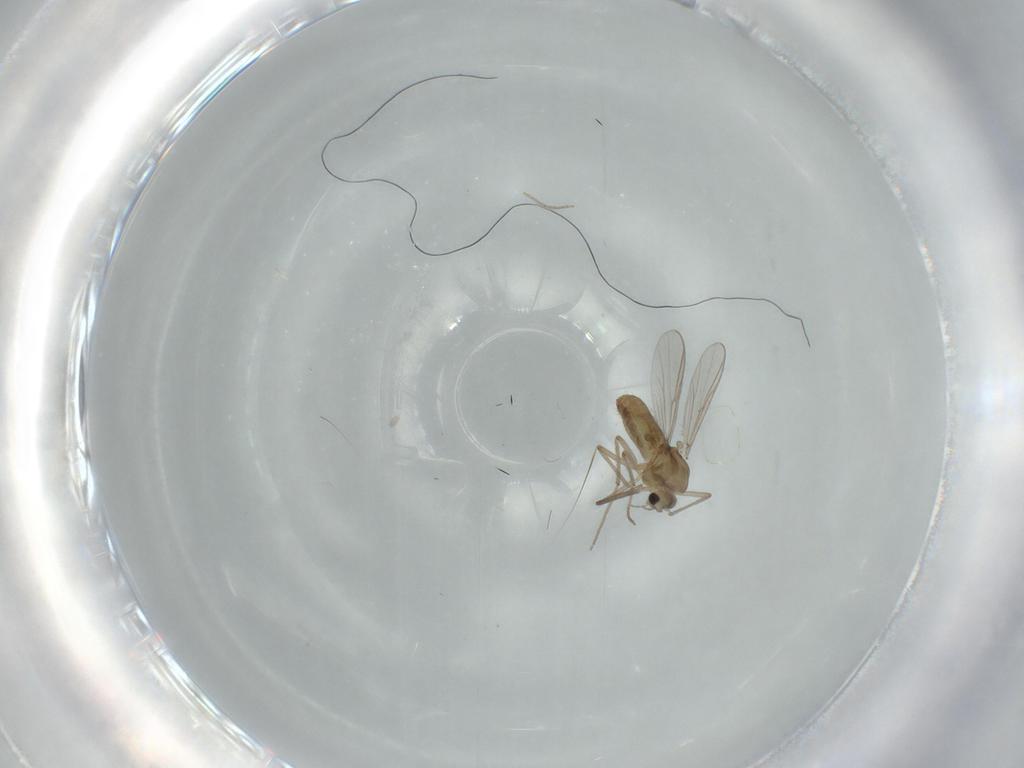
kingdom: Animalia
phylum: Arthropoda
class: Insecta
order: Diptera
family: Chironomidae
